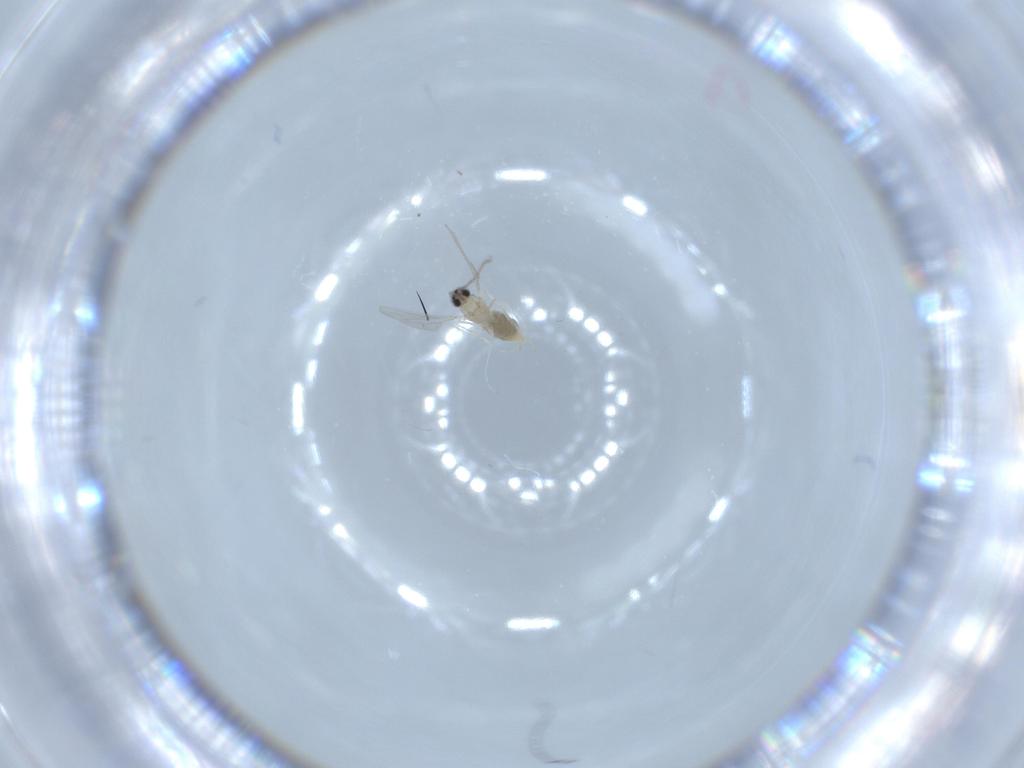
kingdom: Animalia
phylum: Arthropoda
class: Insecta
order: Diptera
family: Cecidomyiidae
